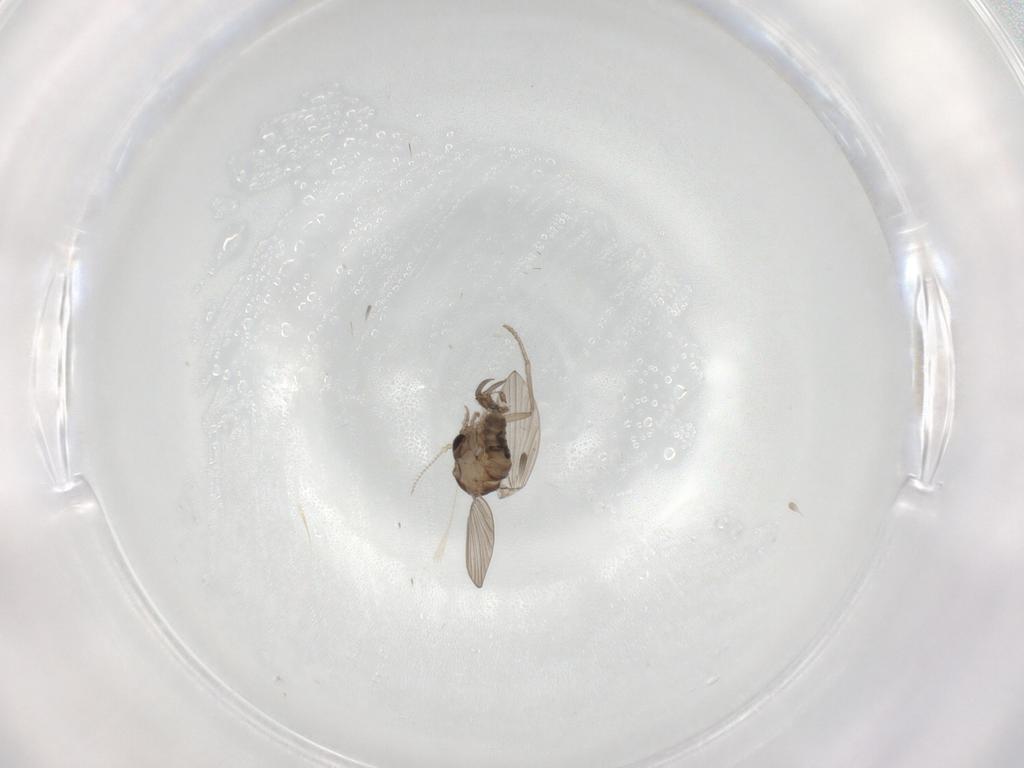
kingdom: Animalia
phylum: Arthropoda
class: Insecta
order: Diptera
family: Psychodidae
